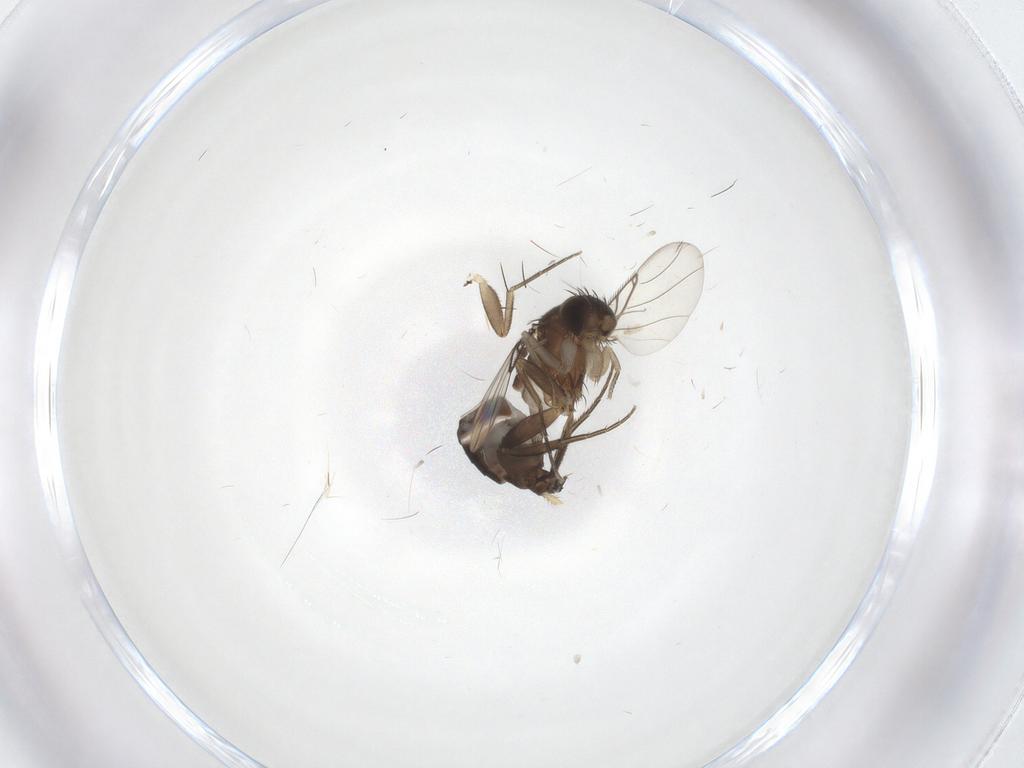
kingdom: Animalia
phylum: Arthropoda
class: Insecta
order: Diptera
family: Phoridae
